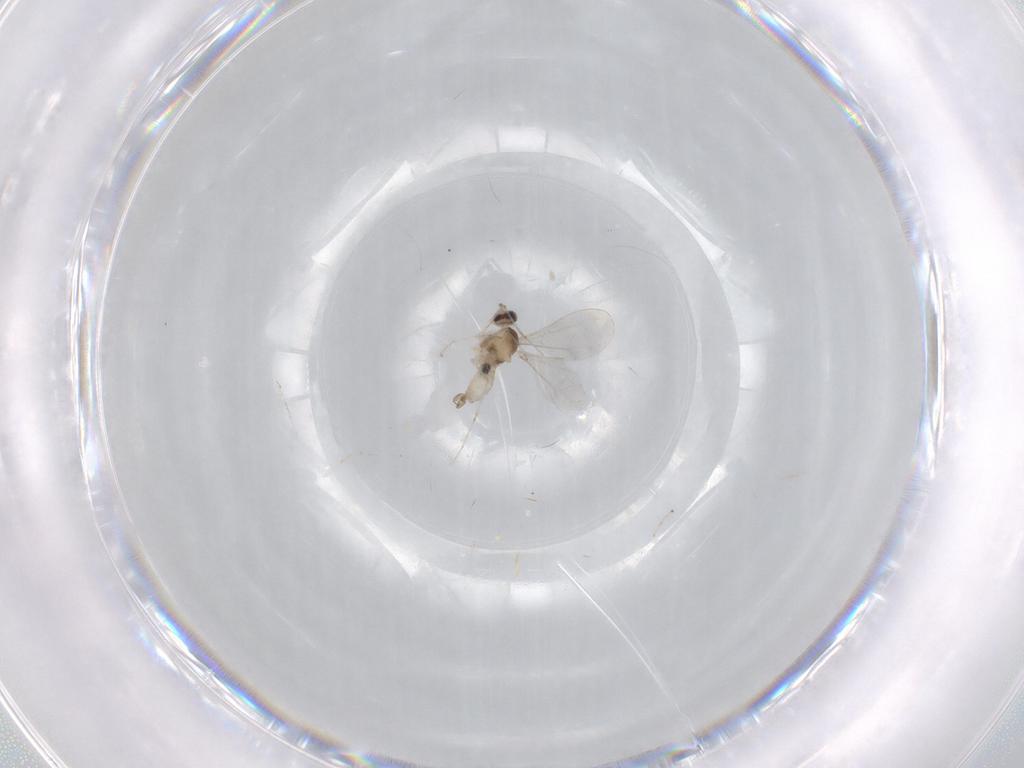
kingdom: Animalia
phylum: Arthropoda
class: Insecta
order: Diptera
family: Cecidomyiidae
